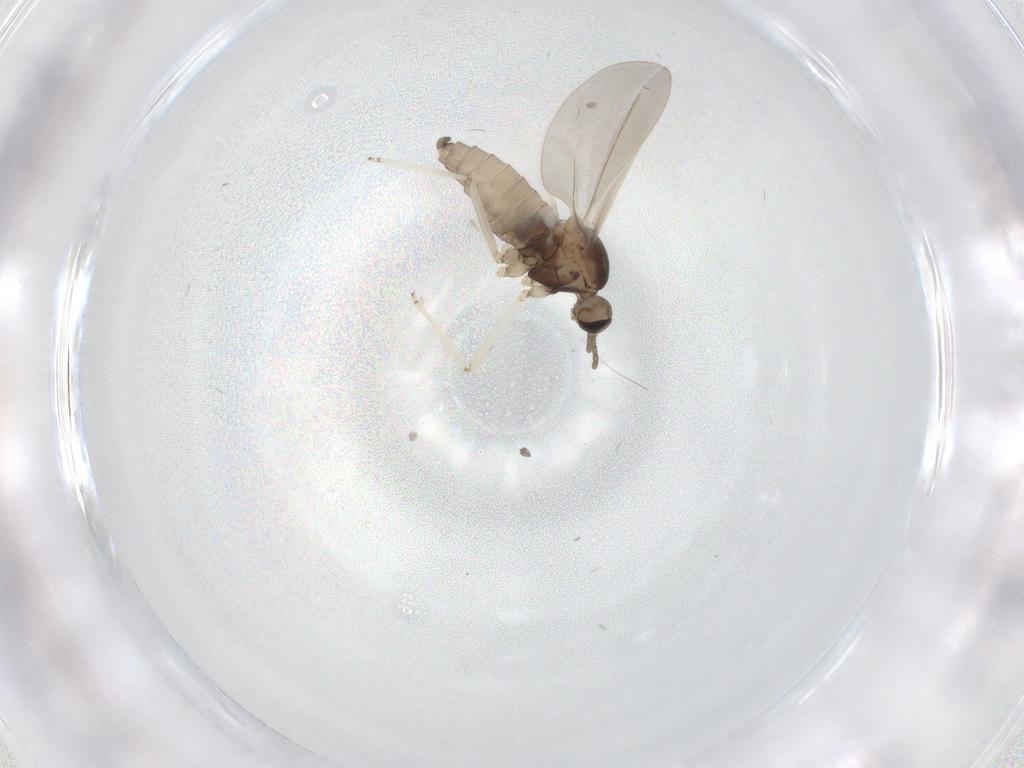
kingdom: Animalia
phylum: Arthropoda
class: Insecta
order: Diptera
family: Cecidomyiidae
